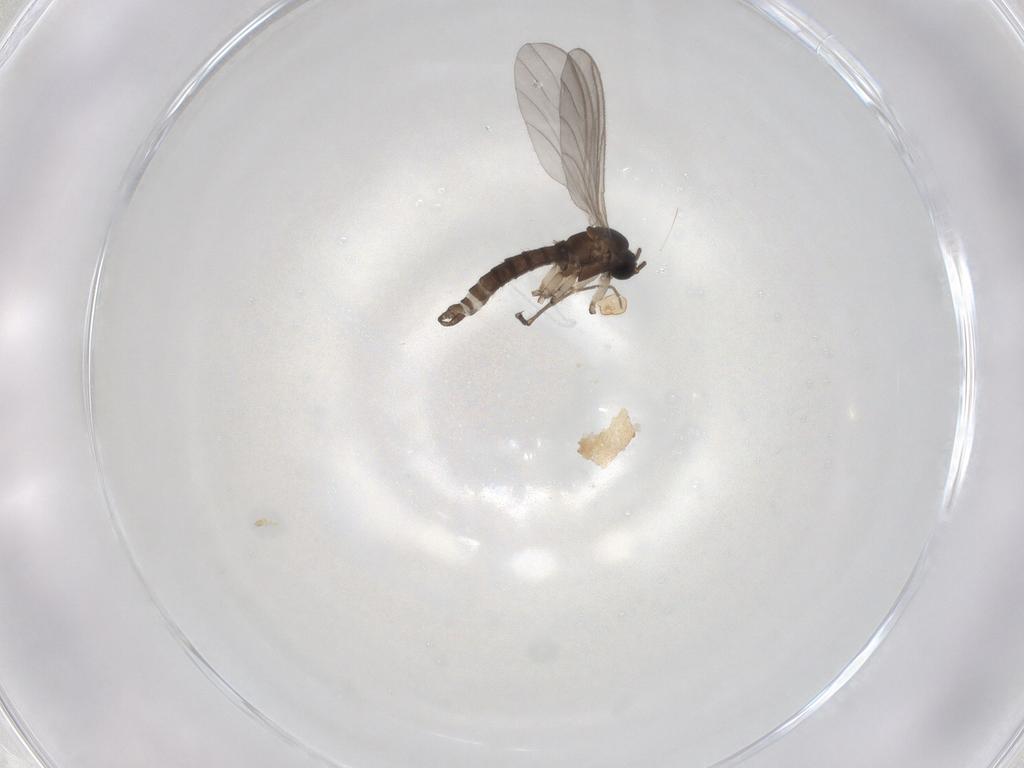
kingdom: Animalia
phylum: Arthropoda
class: Insecta
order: Diptera
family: Sciaridae
